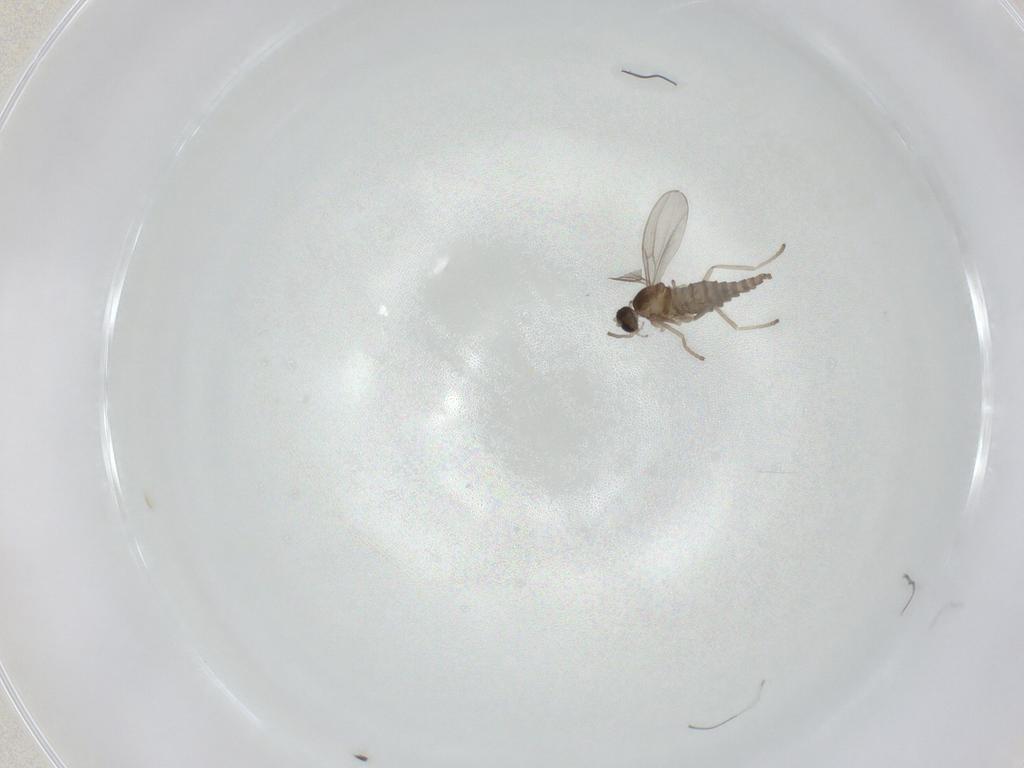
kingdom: Animalia
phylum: Arthropoda
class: Insecta
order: Diptera
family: Cecidomyiidae
